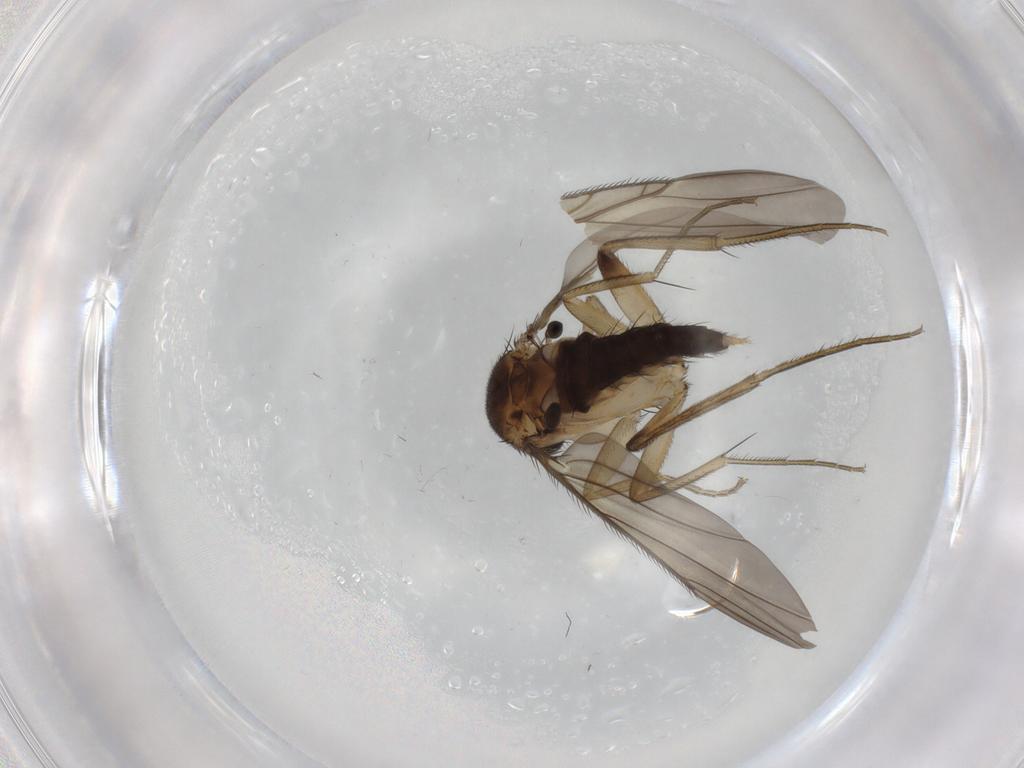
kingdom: Animalia
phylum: Arthropoda
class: Insecta
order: Diptera
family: Phoridae
